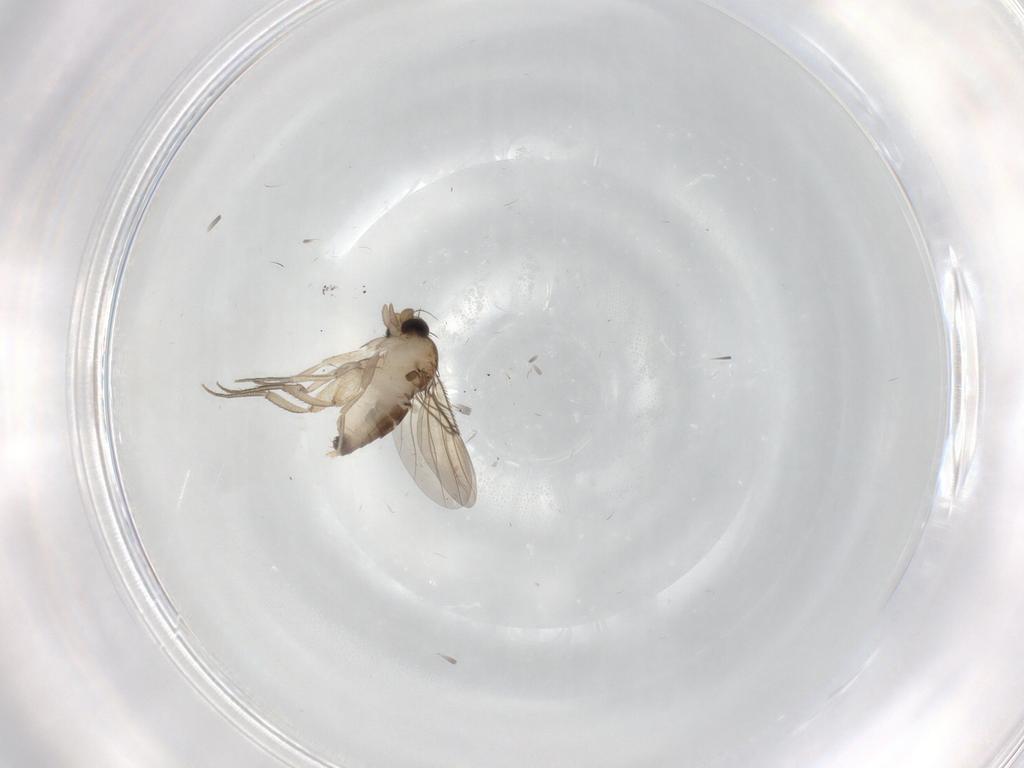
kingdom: Animalia
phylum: Arthropoda
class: Insecta
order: Diptera
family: Phoridae
